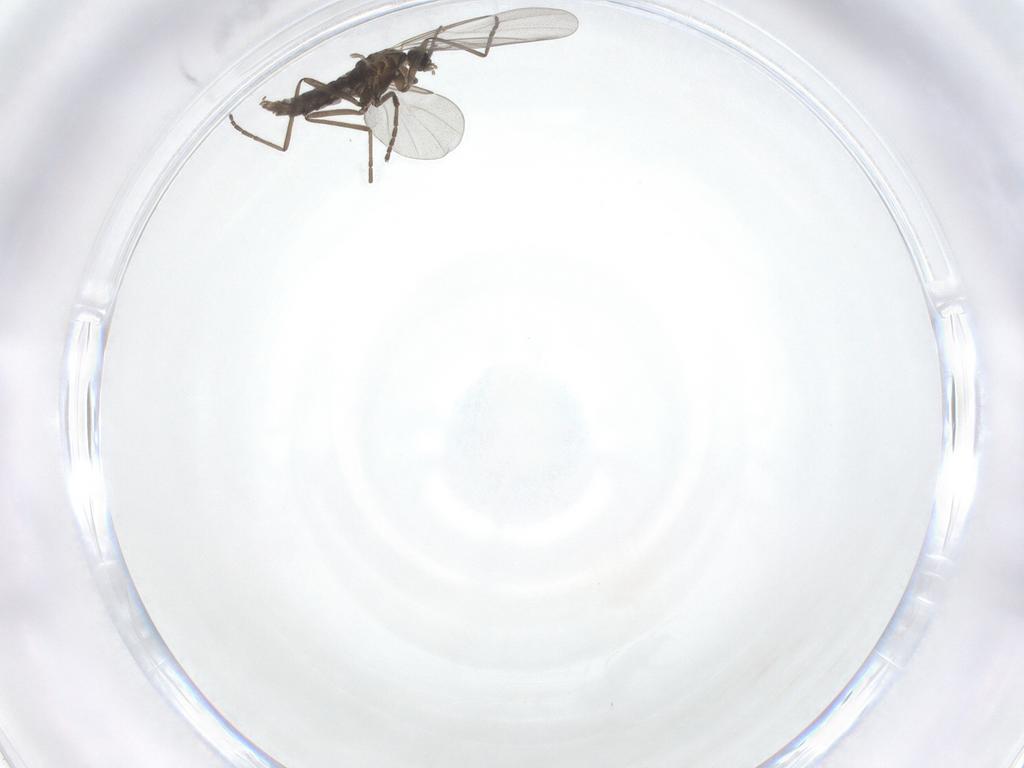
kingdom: Animalia
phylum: Arthropoda
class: Insecta
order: Diptera
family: Cecidomyiidae
